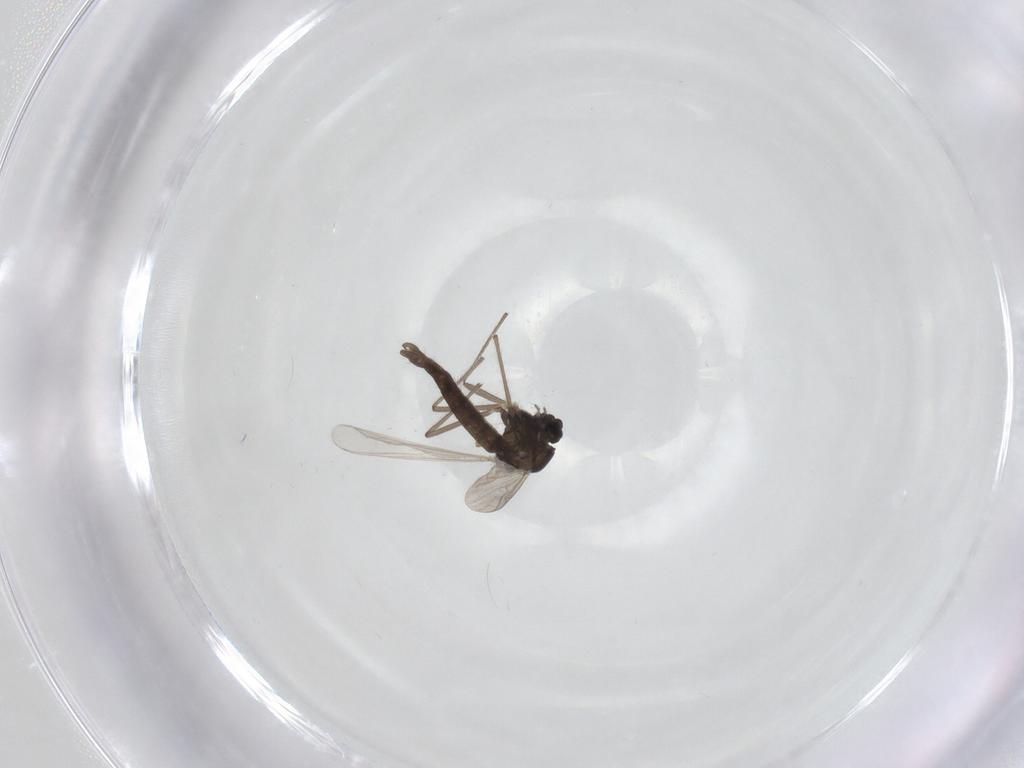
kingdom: Animalia
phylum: Arthropoda
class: Insecta
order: Diptera
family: Chironomidae
